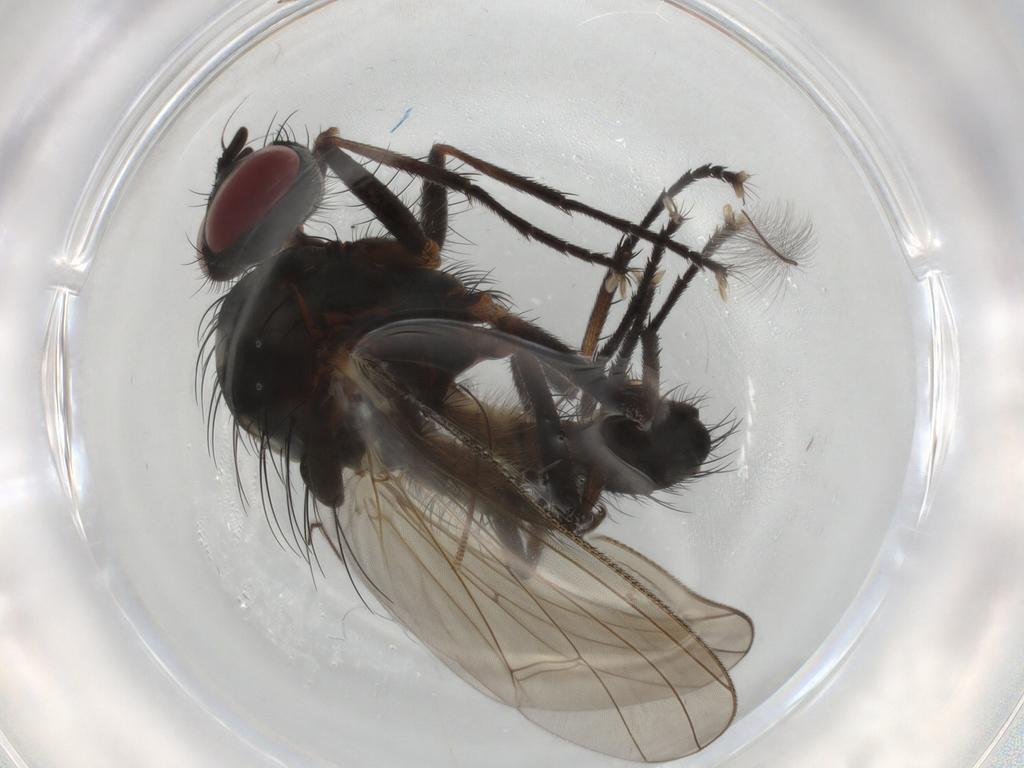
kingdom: Animalia
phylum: Arthropoda
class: Insecta
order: Diptera
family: Anthomyiidae
